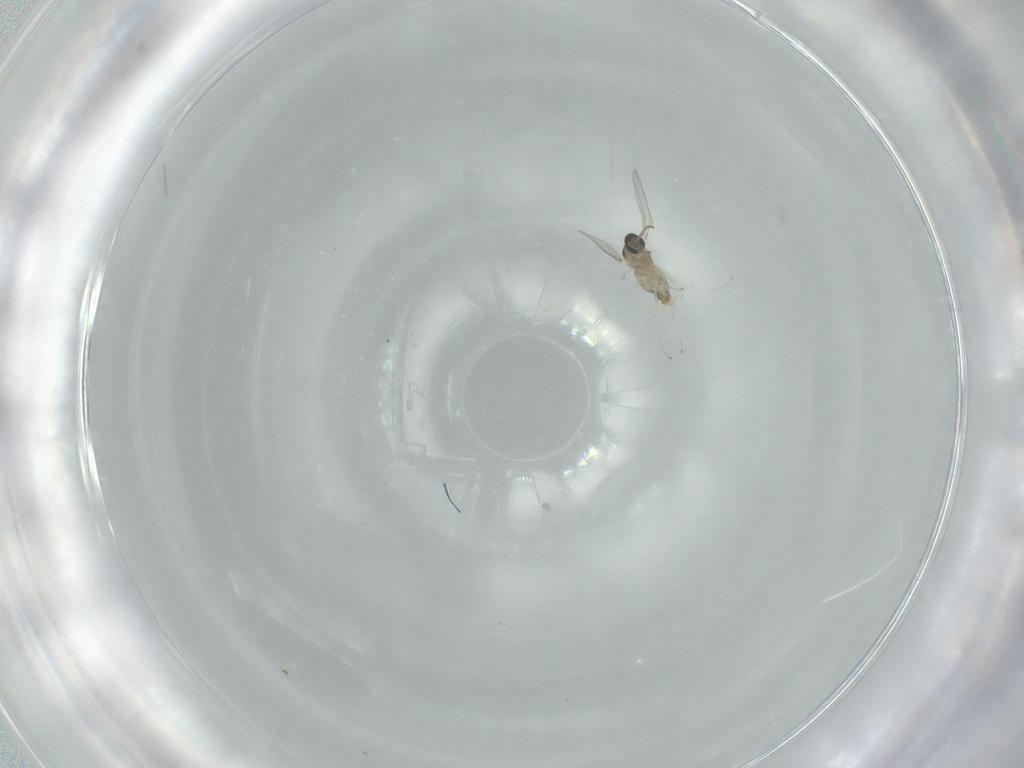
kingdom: Animalia
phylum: Arthropoda
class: Insecta
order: Diptera
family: Cecidomyiidae
